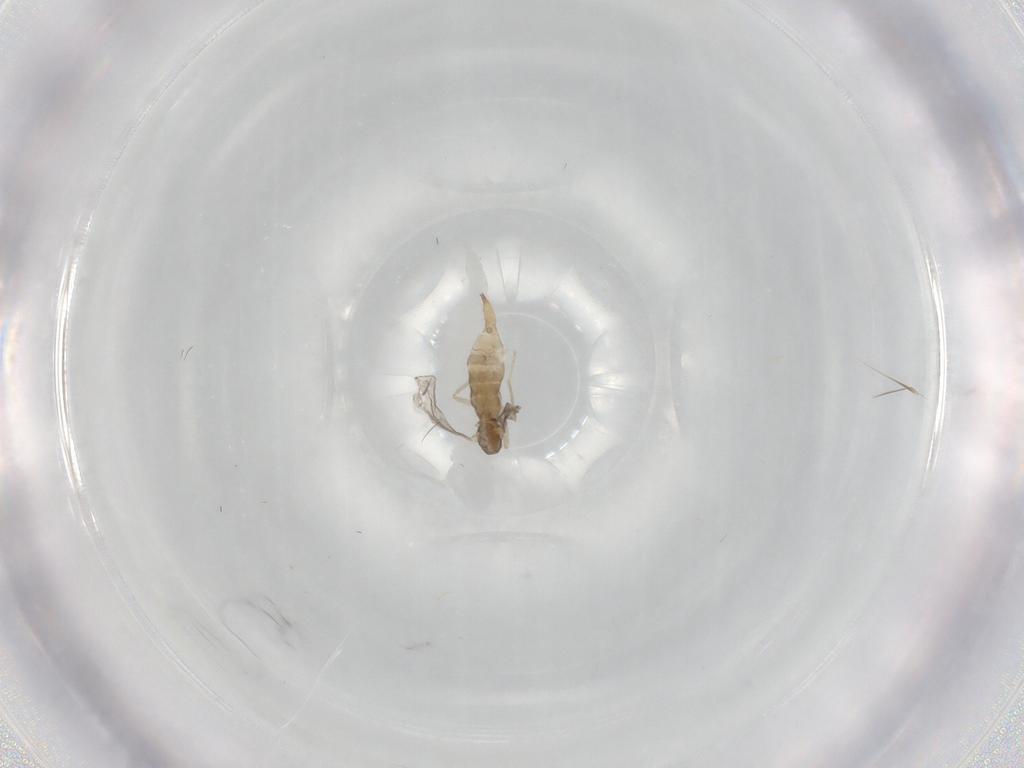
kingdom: Animalia
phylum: Arthropoda
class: Insecta
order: Diptera
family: Cecidomyiidae
